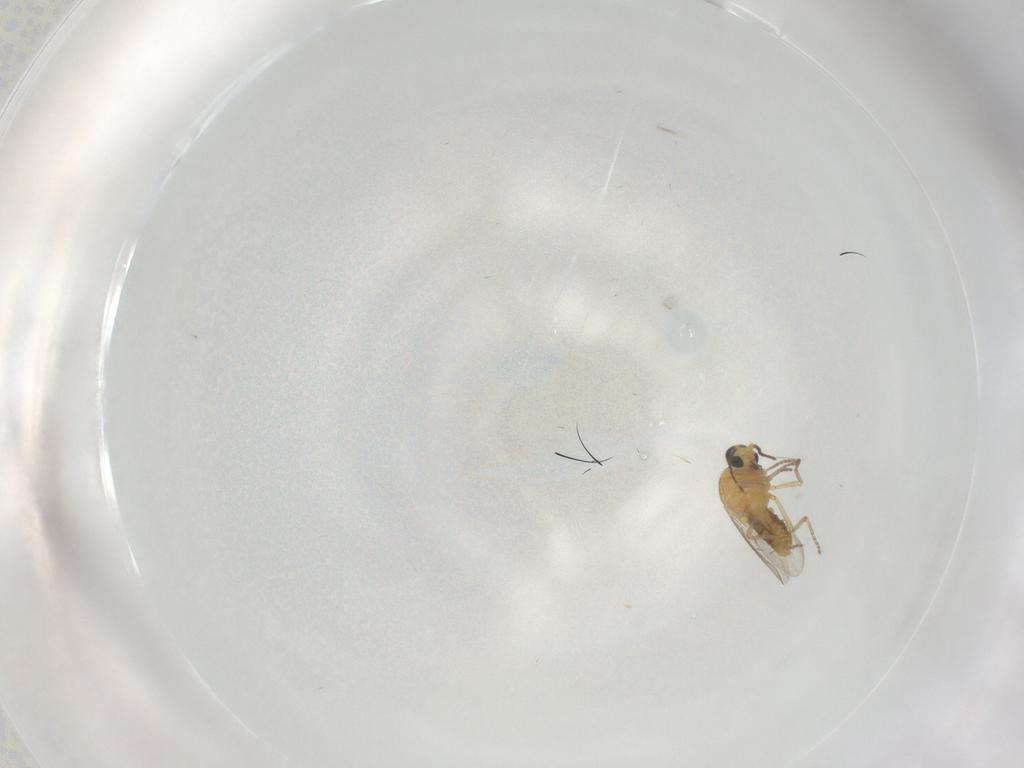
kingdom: Animalia
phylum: Arthropoda
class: Insecta
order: Diptera
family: Ceratopogonidae
